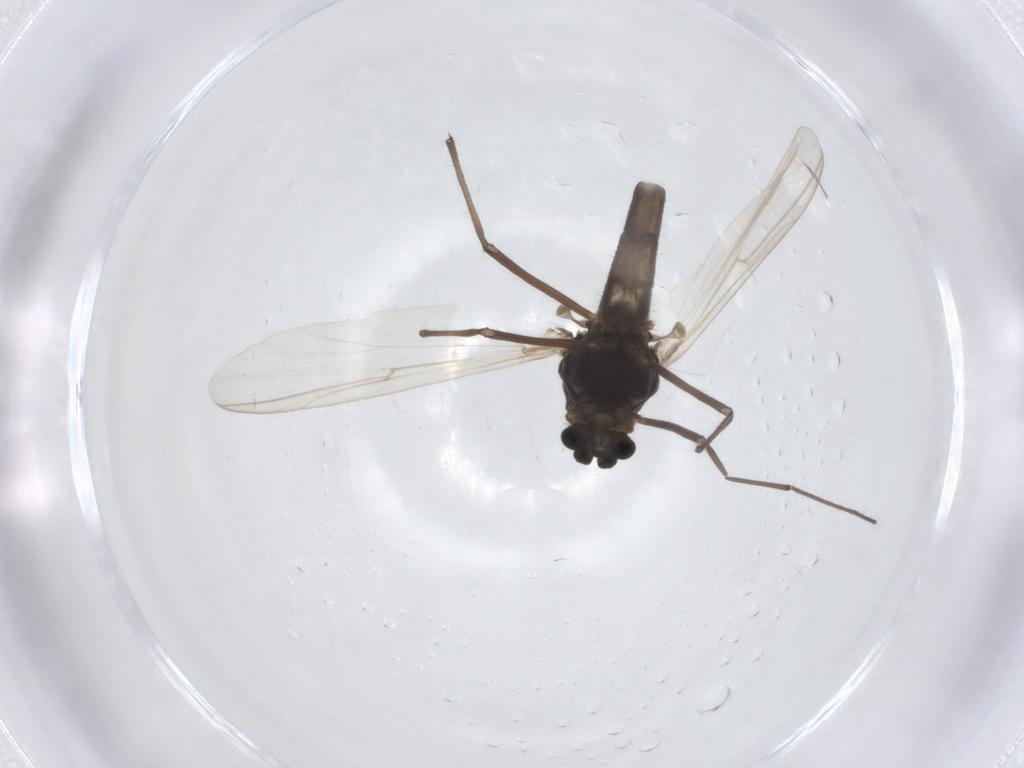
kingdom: Animalia
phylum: Arthropoda
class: Insecta
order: Diptera
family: Chironomidae
